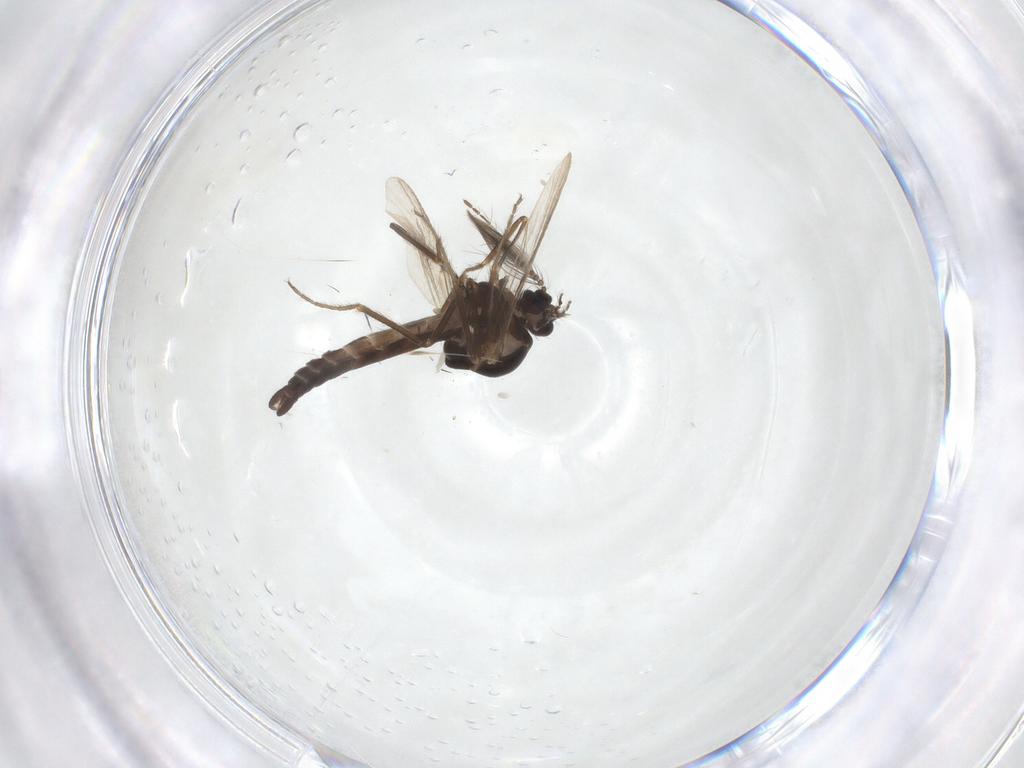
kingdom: Animalia
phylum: Arthropoda
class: Insecta
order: Diptera
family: Ceratopogonidae
